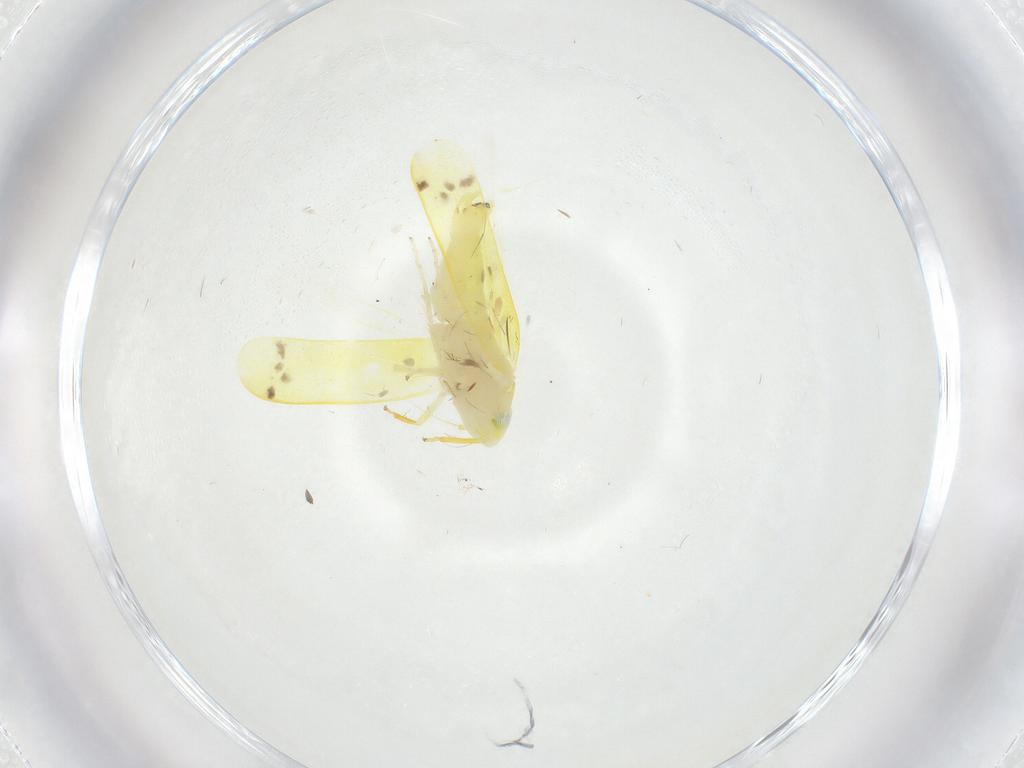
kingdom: Animalia
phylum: Arthropoda
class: Insecta
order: Hemiptera
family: Cicadellidae
